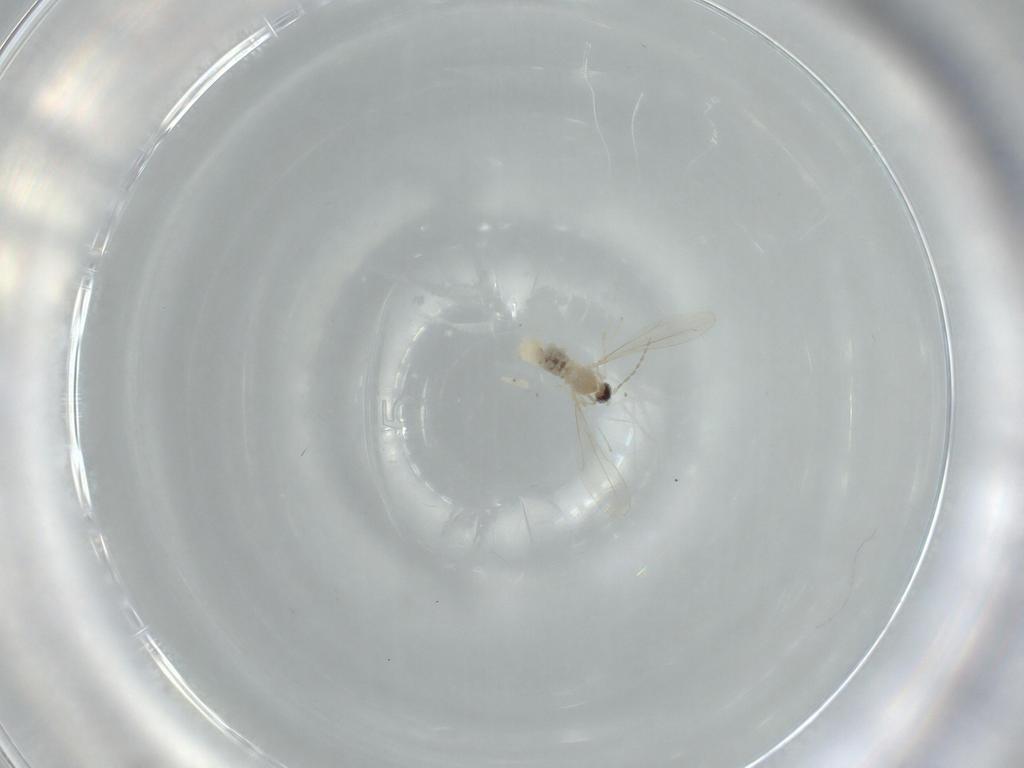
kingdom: Animalia
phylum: Arthropoda
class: Insecta
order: Diptera
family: Cecidomyiidae
